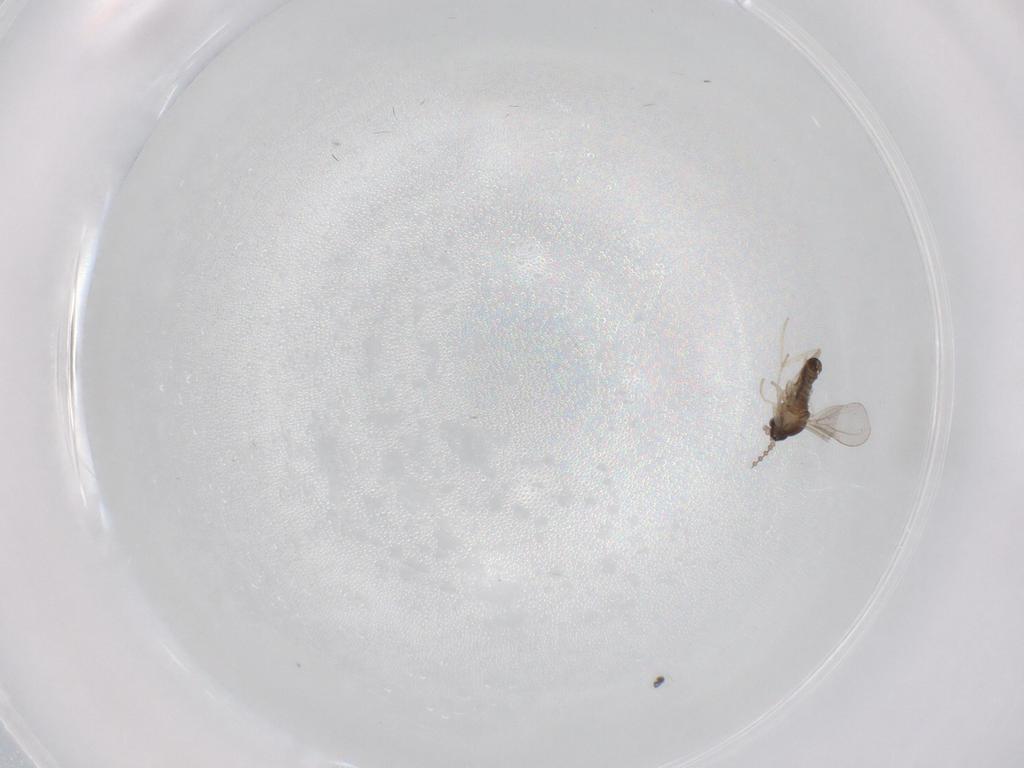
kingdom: Animalia
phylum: Arthropoda
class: Insecta
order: Diptera
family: Cecidomyiidae
